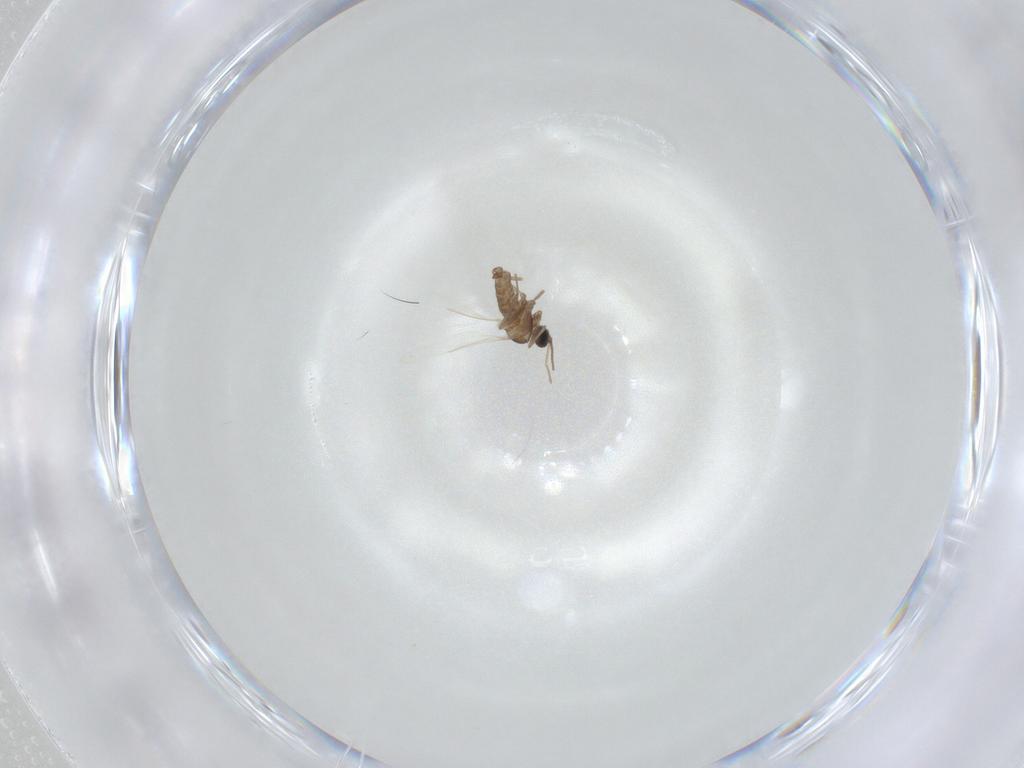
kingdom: Animalia
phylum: Arthropoda
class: Insecta
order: Diptera
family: Cecidomyiidae
